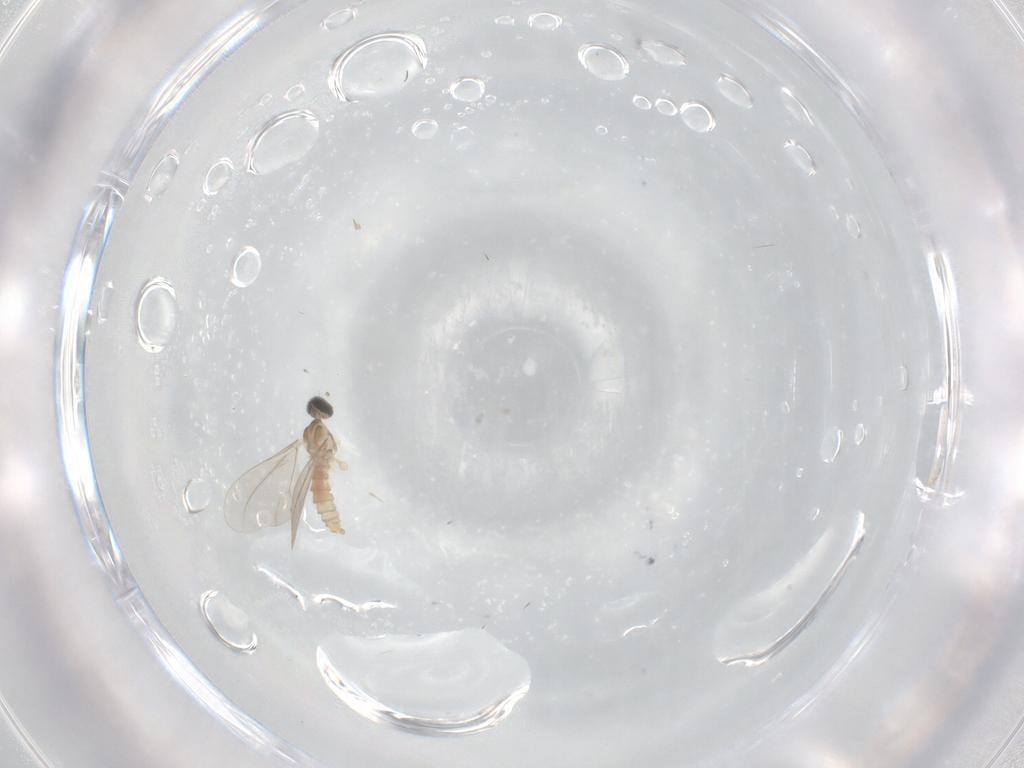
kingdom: Animalia
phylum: Arthropoda
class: Insecta
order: Diptera
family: Cecidomyiidae
